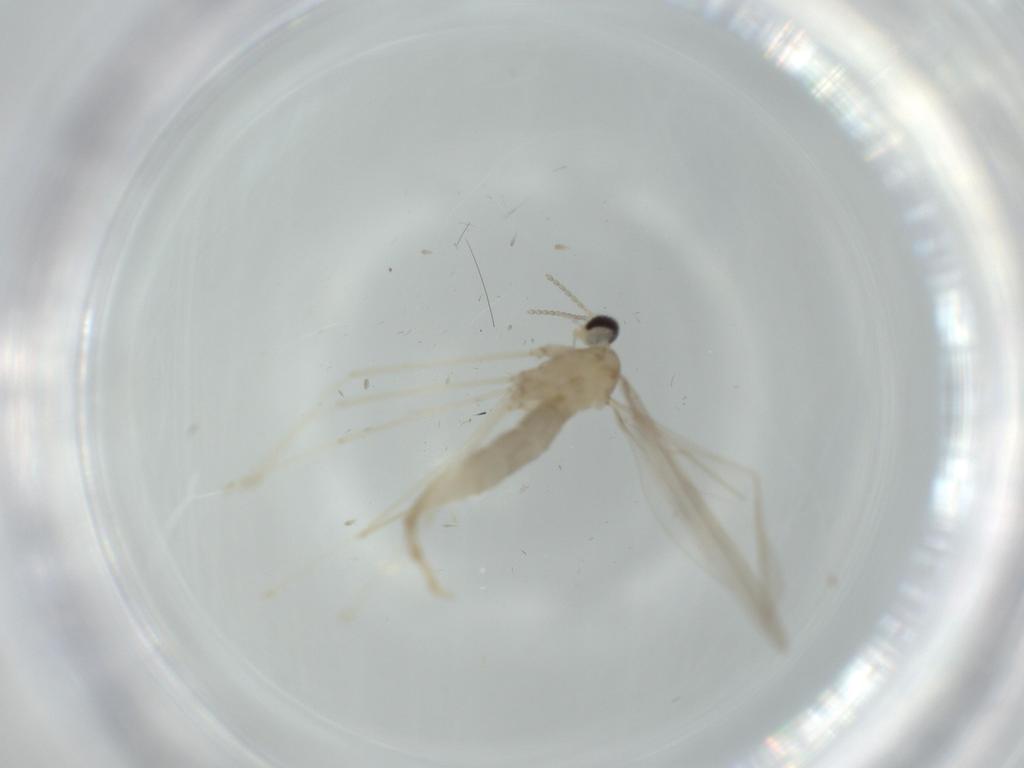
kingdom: Animalia
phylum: Arthropoda
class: Insecta
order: Diptera
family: Cecidomyiidae
